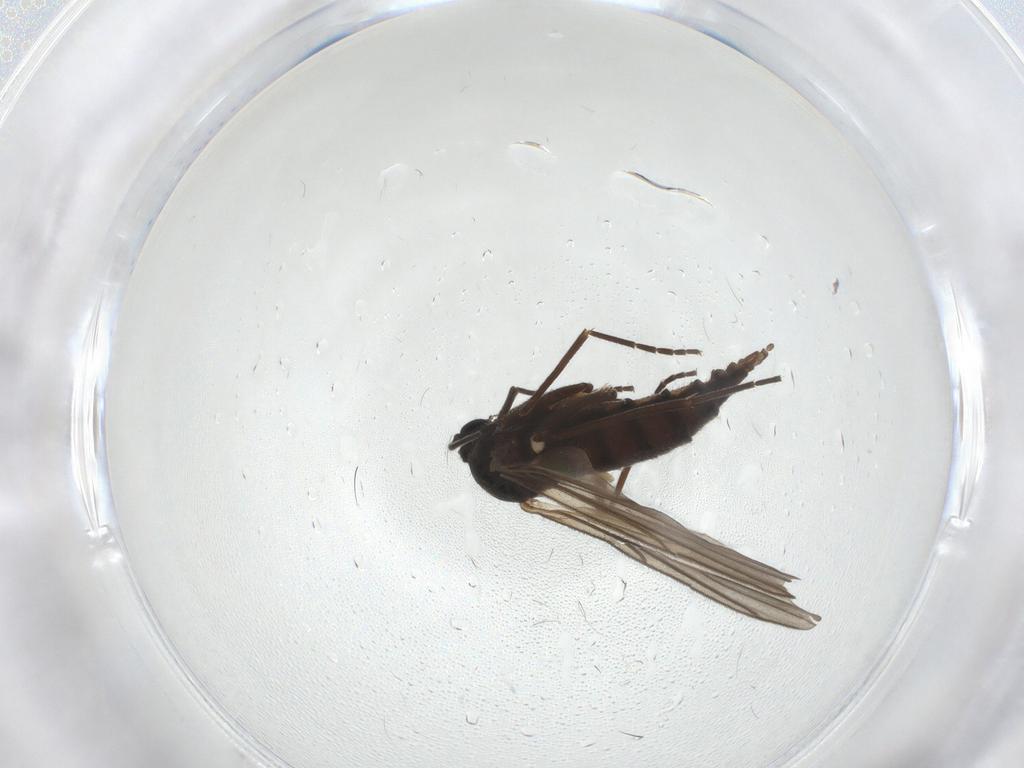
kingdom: Animalia
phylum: Arthropoda
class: Insecta
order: Diptera
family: Sciaridae
